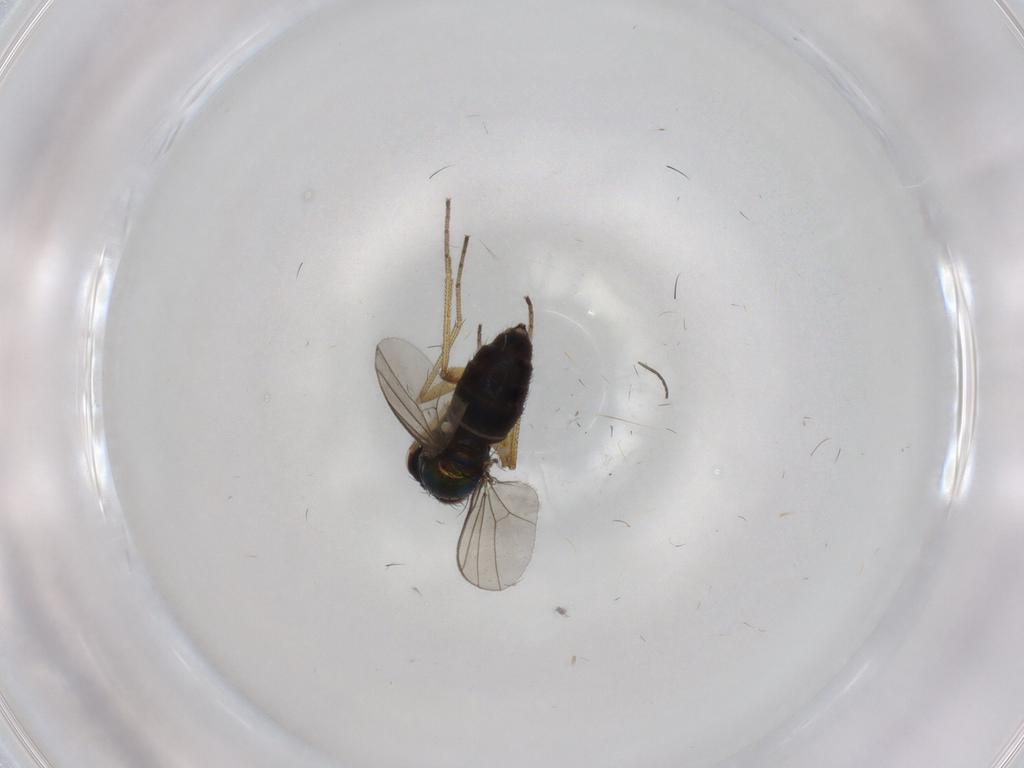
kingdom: Animalia
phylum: Arthropoda
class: Insecta
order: Diptera
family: Dolichopodidae
